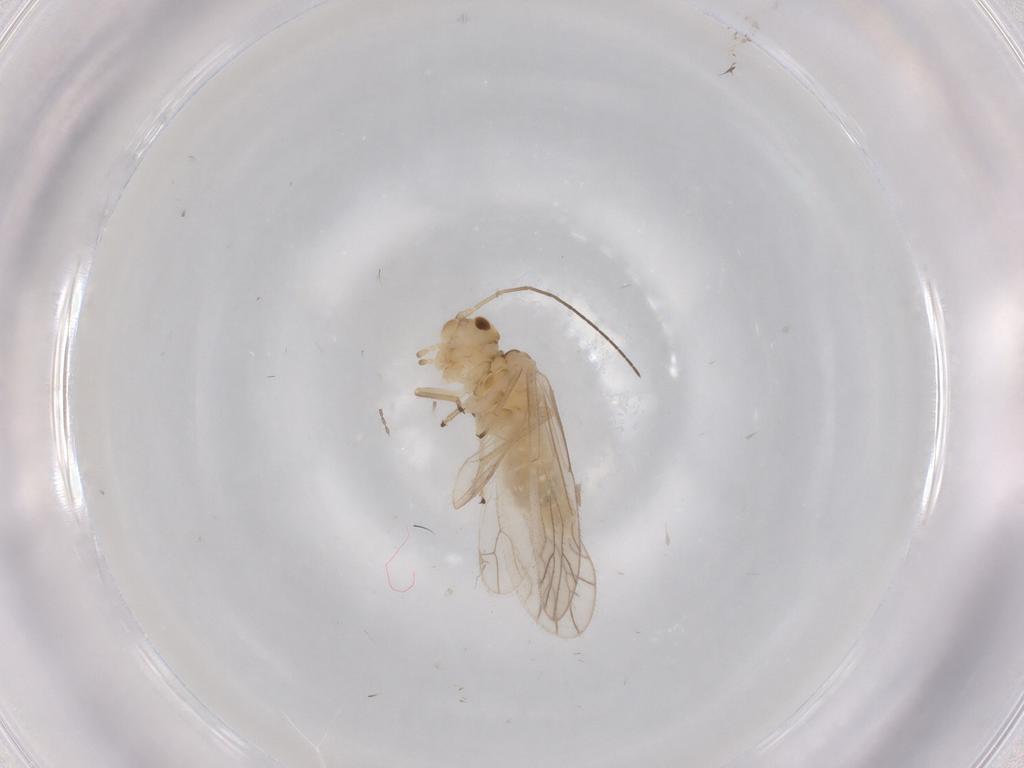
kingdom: Animalia
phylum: Arthropoda
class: Insecta
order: Psocodea
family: Caeciliusidae
